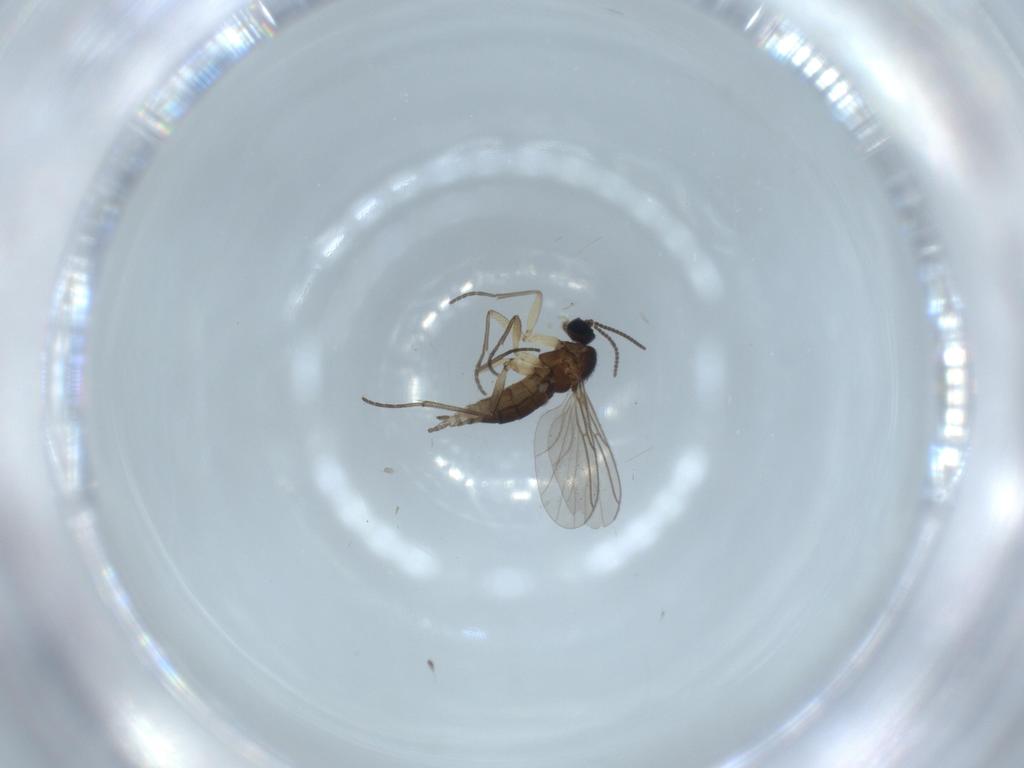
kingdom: Animalia
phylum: Arthropoda
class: Insecta
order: Diptera
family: Sciaridae
